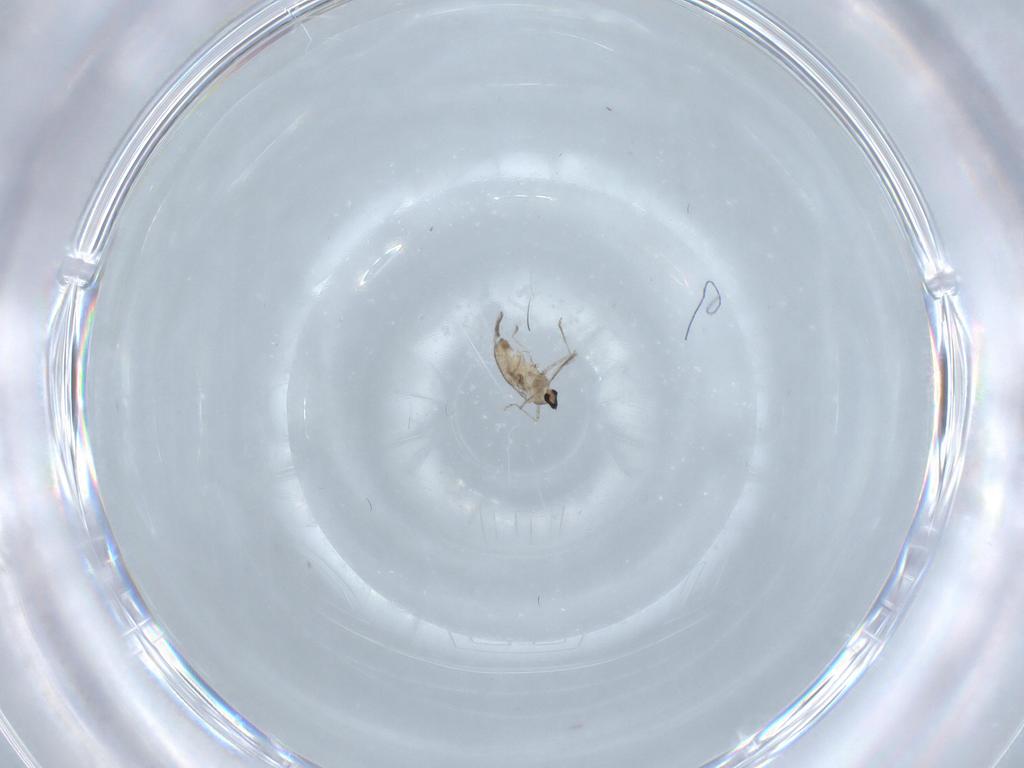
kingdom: Animalia
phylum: Arthropoda
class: Insecta
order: Diptera
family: Cecidomyiidae
